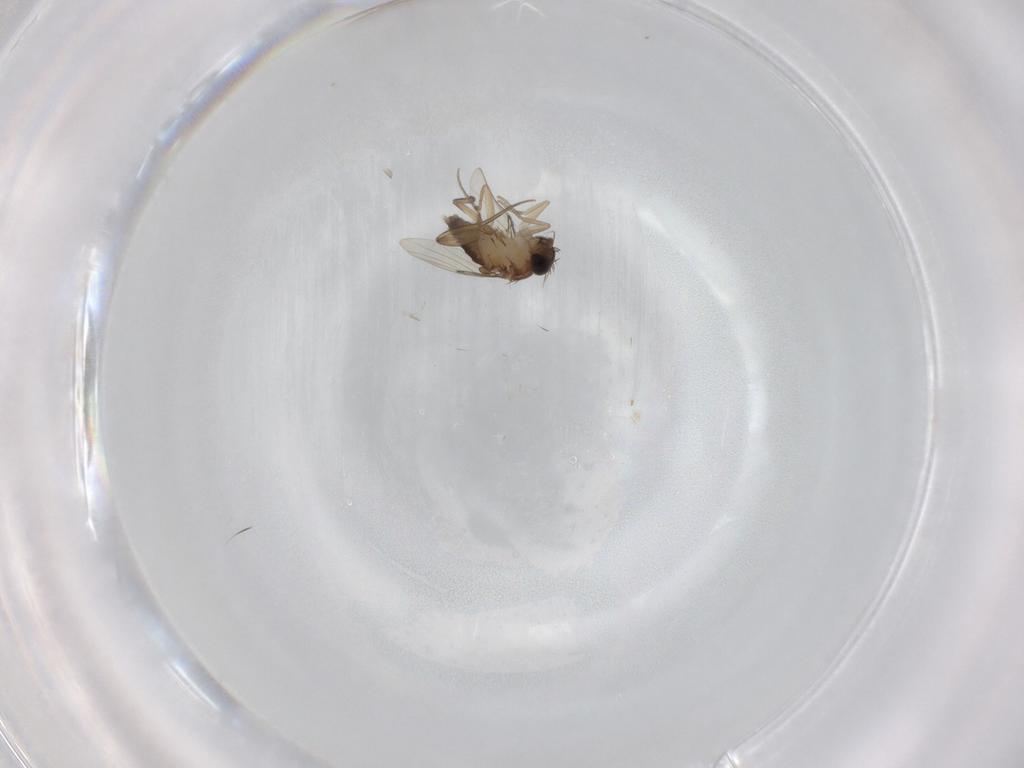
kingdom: Animalia
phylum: Arthropoda
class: Insecta
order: Diptera
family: Phoridae
